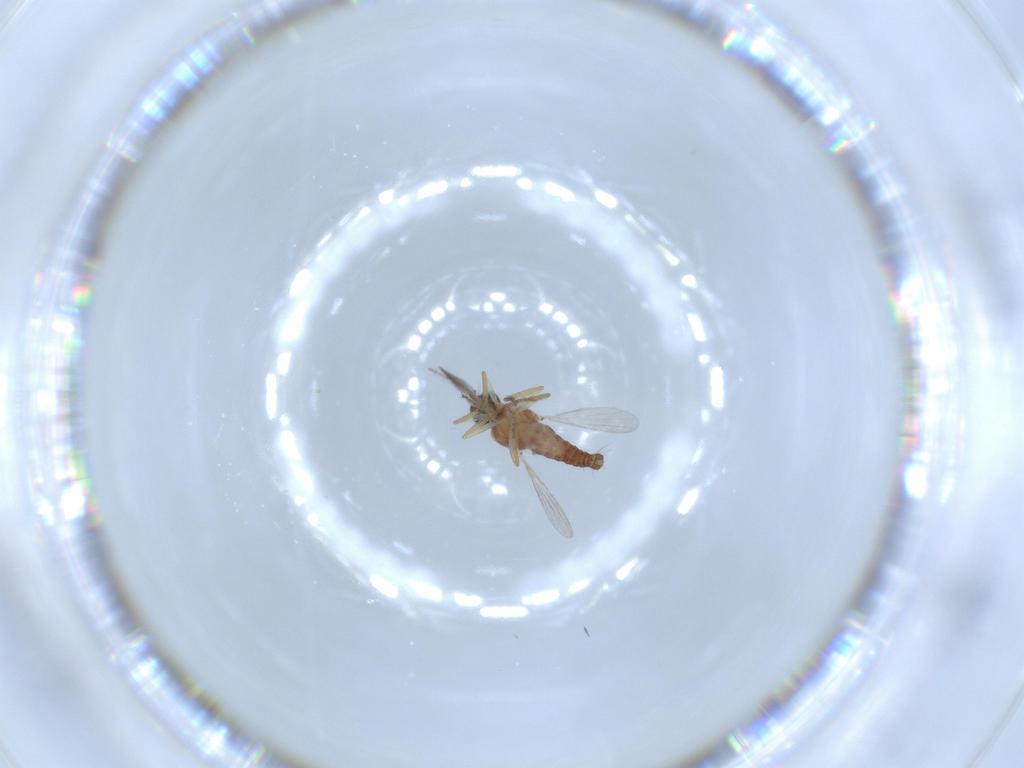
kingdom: Animalia
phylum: Arthropoda
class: Insecta
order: Diptera
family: Ceratopogonidae
